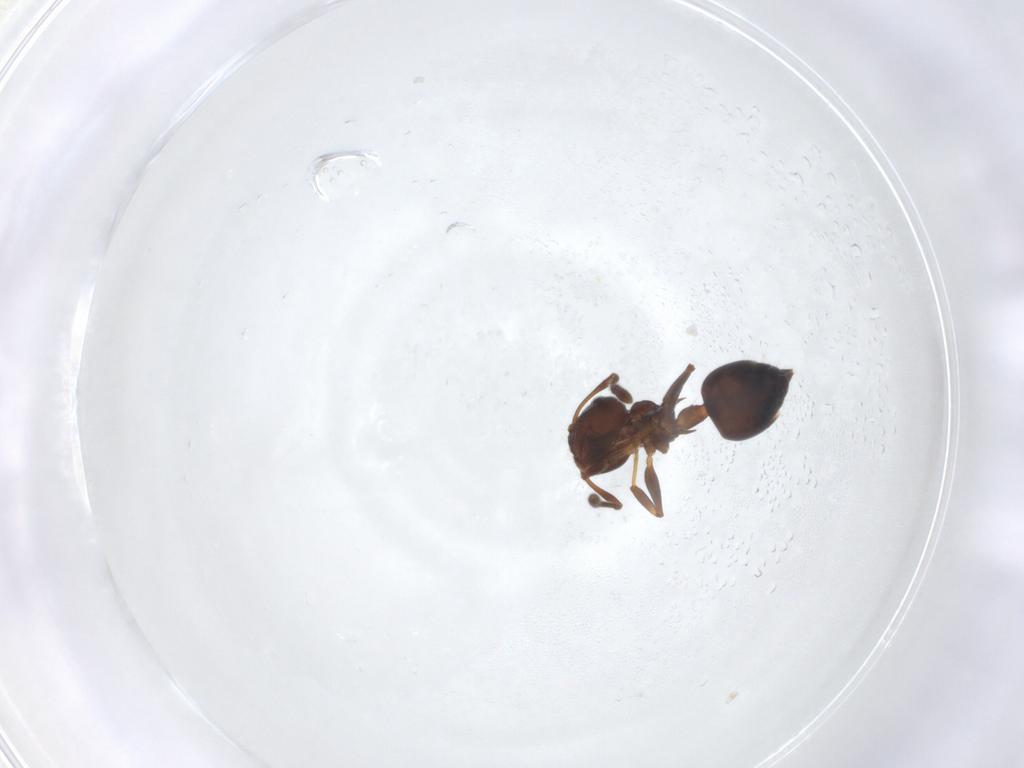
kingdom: Animalia
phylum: Arthropoda
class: Insecta
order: Hymenoptera
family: Formicidae
